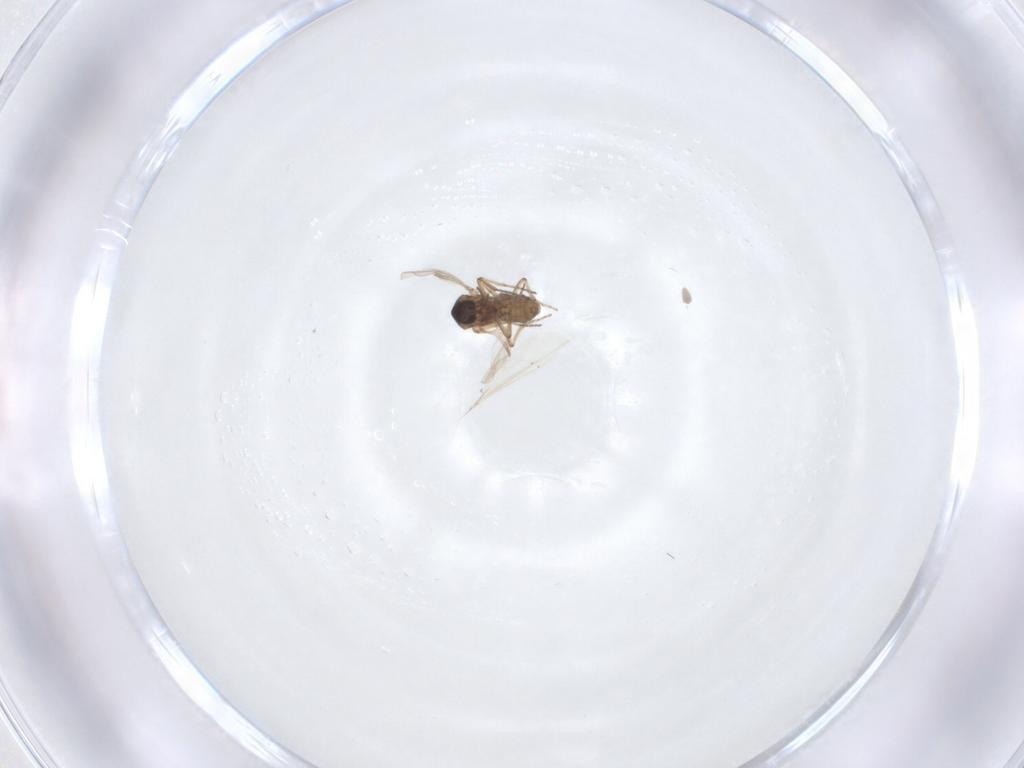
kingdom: Animalia
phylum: Arthropoda
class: Insecta
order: Diptera
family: Ceratopogonidae
